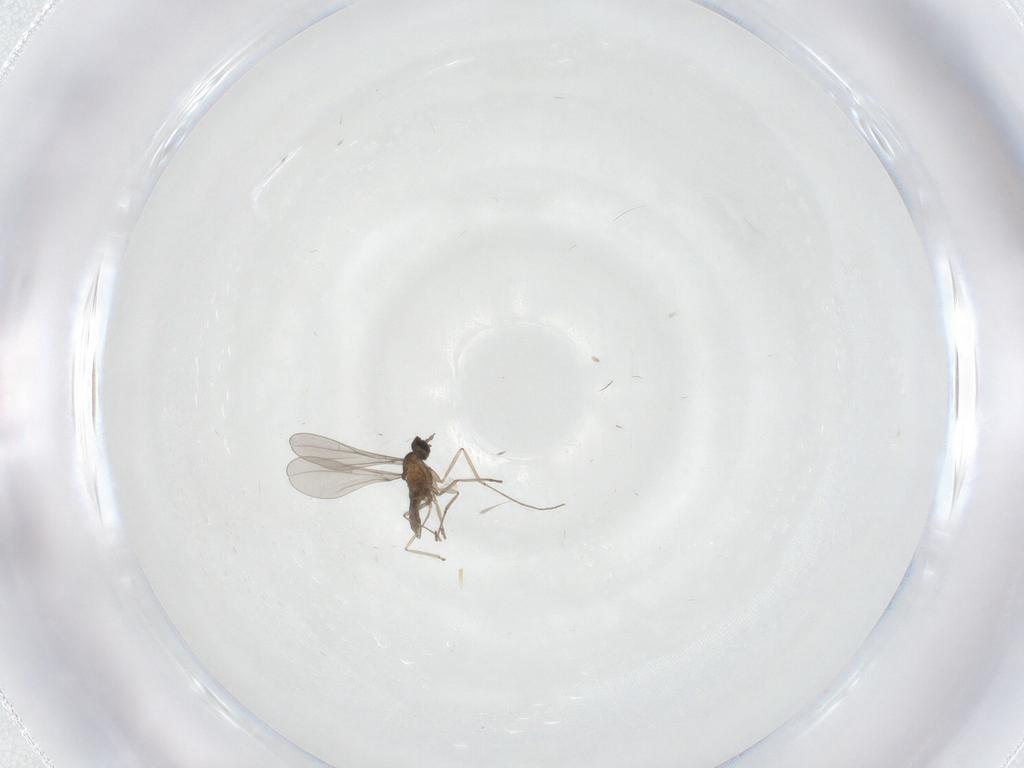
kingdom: Animalia
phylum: Arthropoda
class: Insecta
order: Diptera
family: Cecidomyiidae
